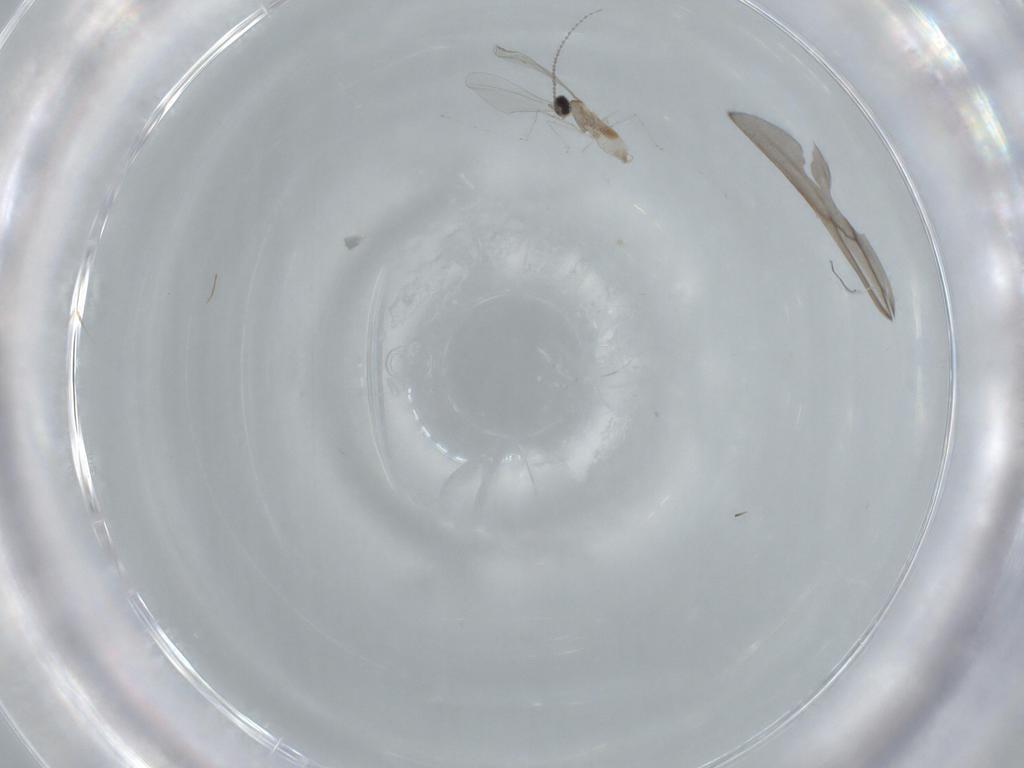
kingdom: Animalia
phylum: Arthropoda
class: Insecta
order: Diptera
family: Cecidomyiidae
